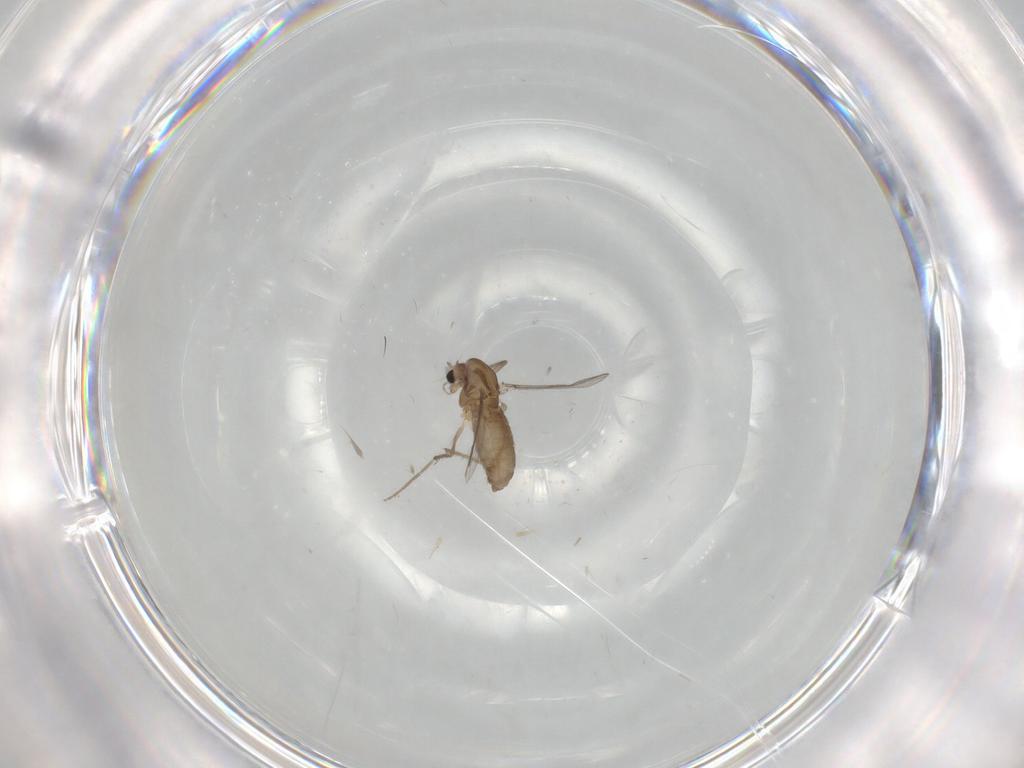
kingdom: Animalia
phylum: Arthropoda
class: Insecta
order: Diptera
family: Chironomidae
